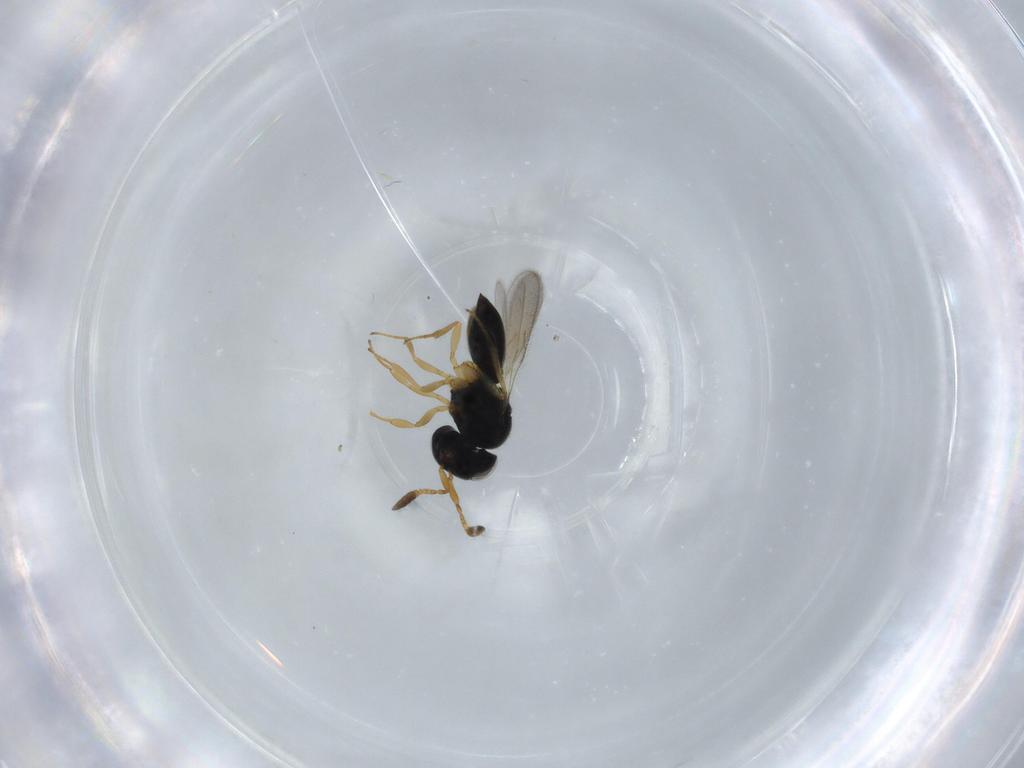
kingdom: Animalia
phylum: Arthropoda
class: Insecta
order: Hymenoptera
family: Scelionidae
